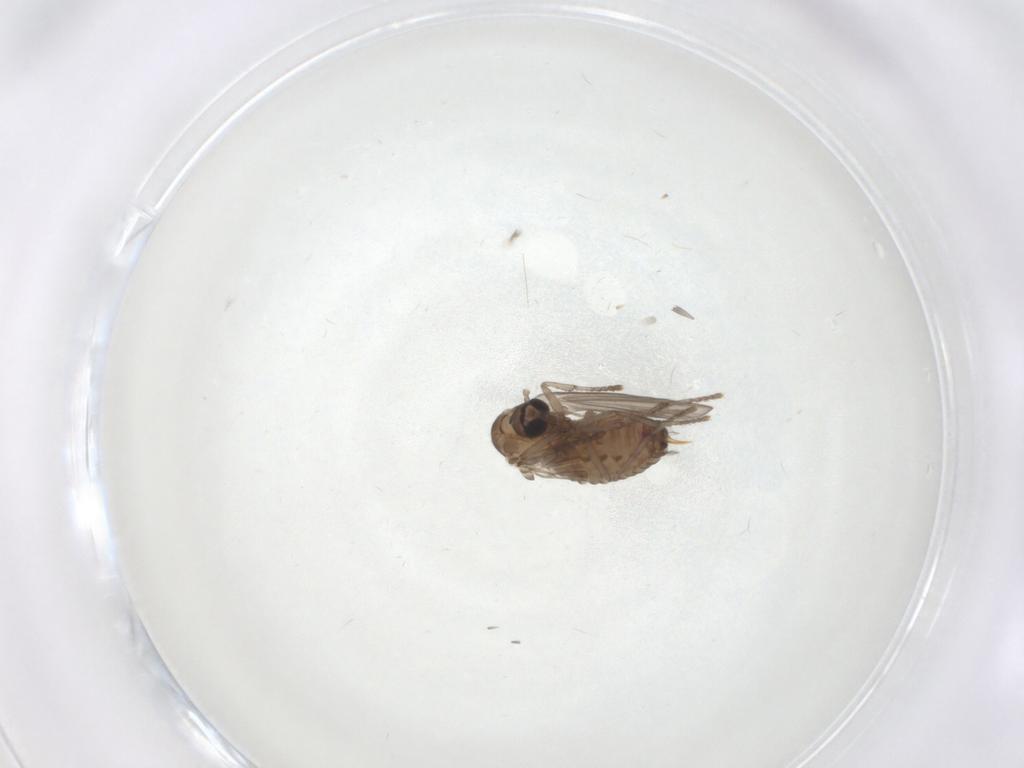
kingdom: Animalia
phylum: Arthropoda
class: Insecta
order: Diptera
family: Psychodidae
